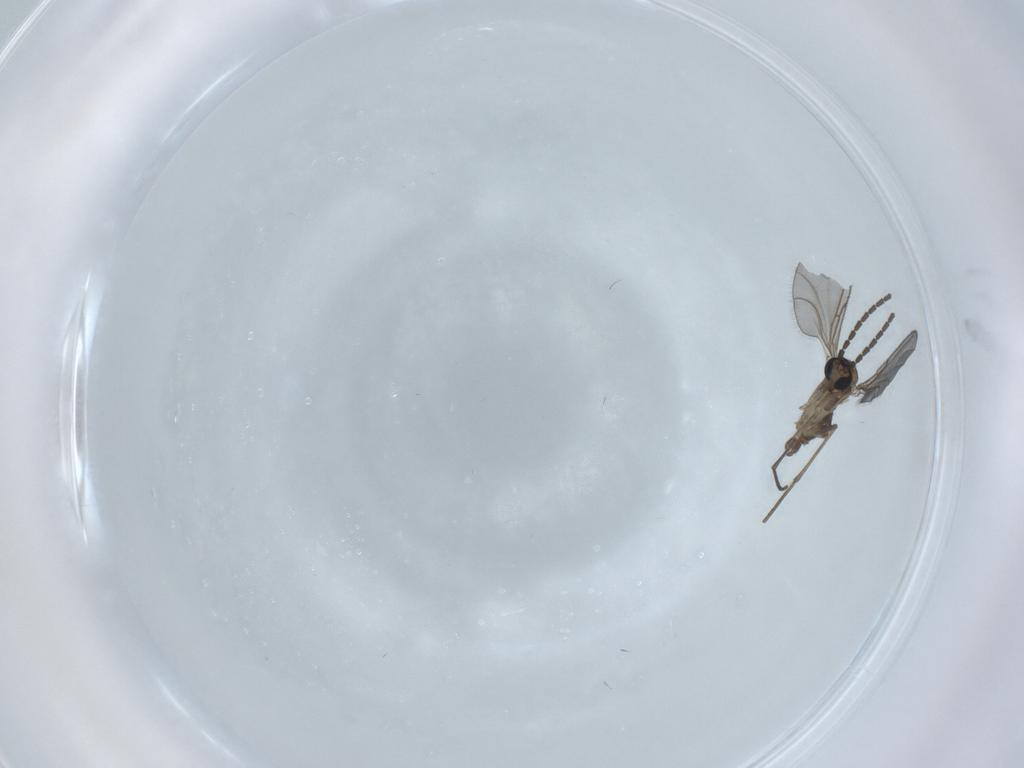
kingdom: Animalia
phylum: Arthropoda
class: Insecta
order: Diptera
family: Sciaridae
